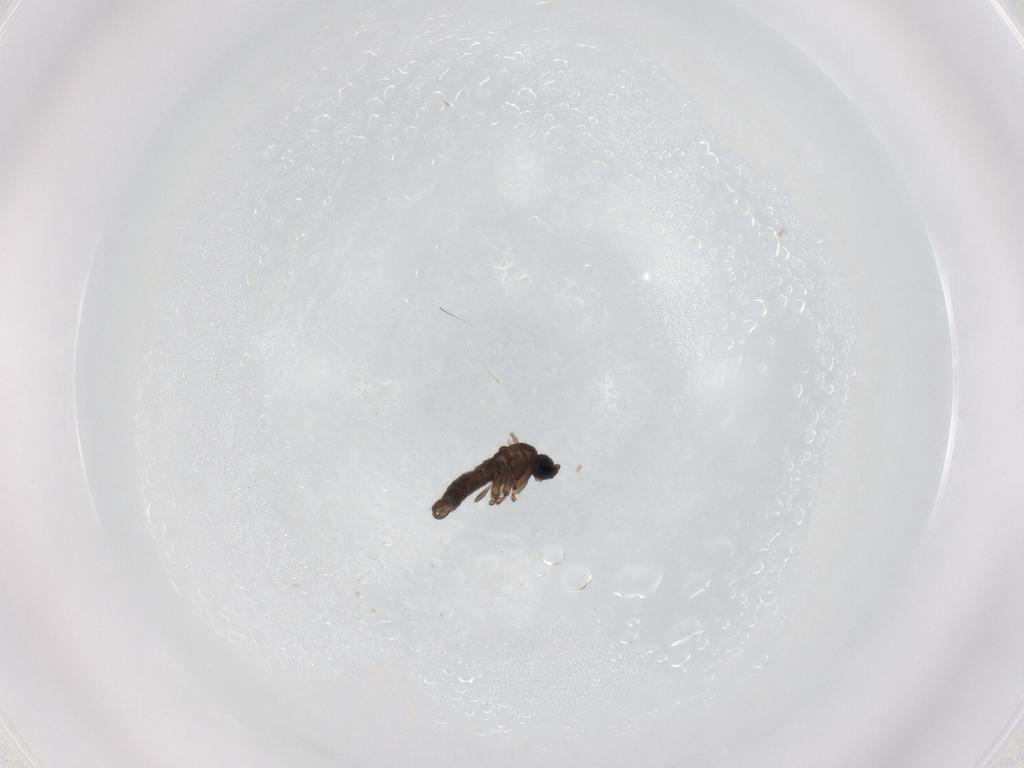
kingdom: Animalia
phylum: Arthropoda
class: Insecta
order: Diptera
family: Sciaridae
